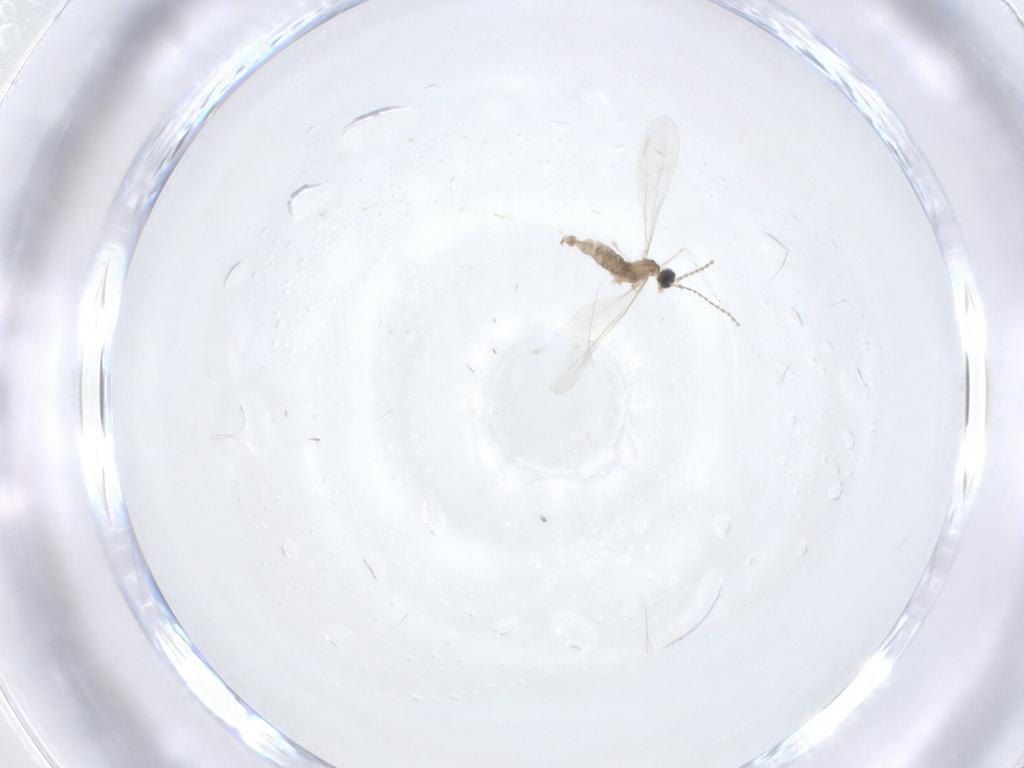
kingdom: Animalia
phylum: Arthropoda
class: Insecta
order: Diptera
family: Cecidomyiidae
